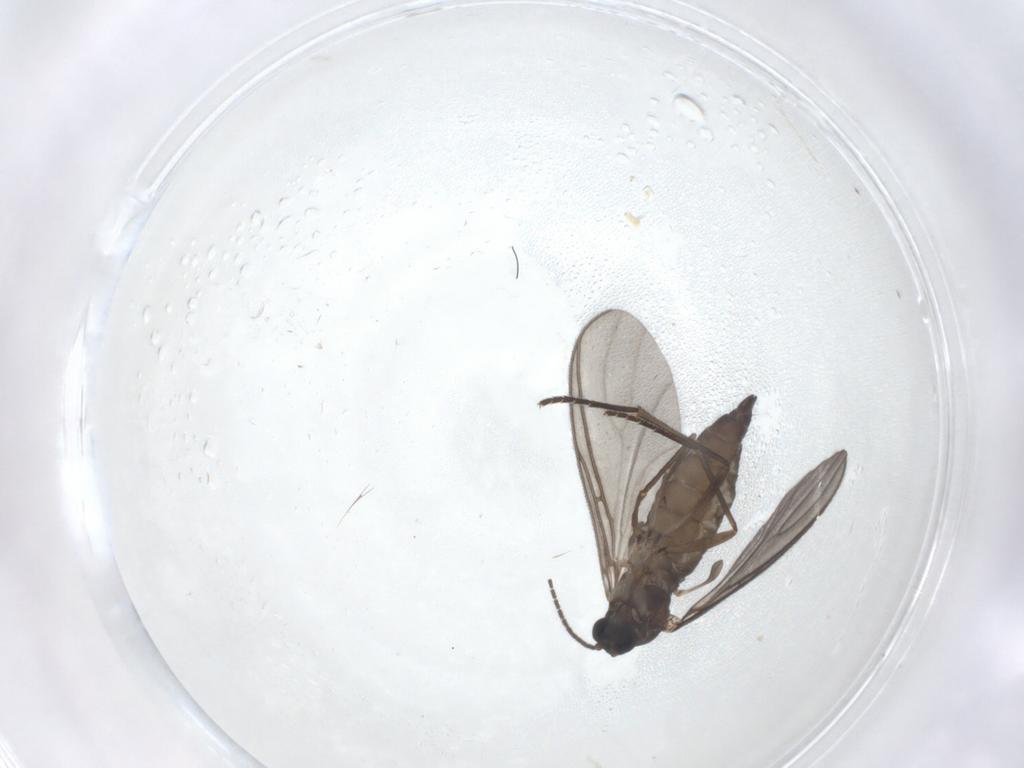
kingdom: Animalia
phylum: Arthropoda
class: Insecta
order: Diptera
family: Sciaridae
